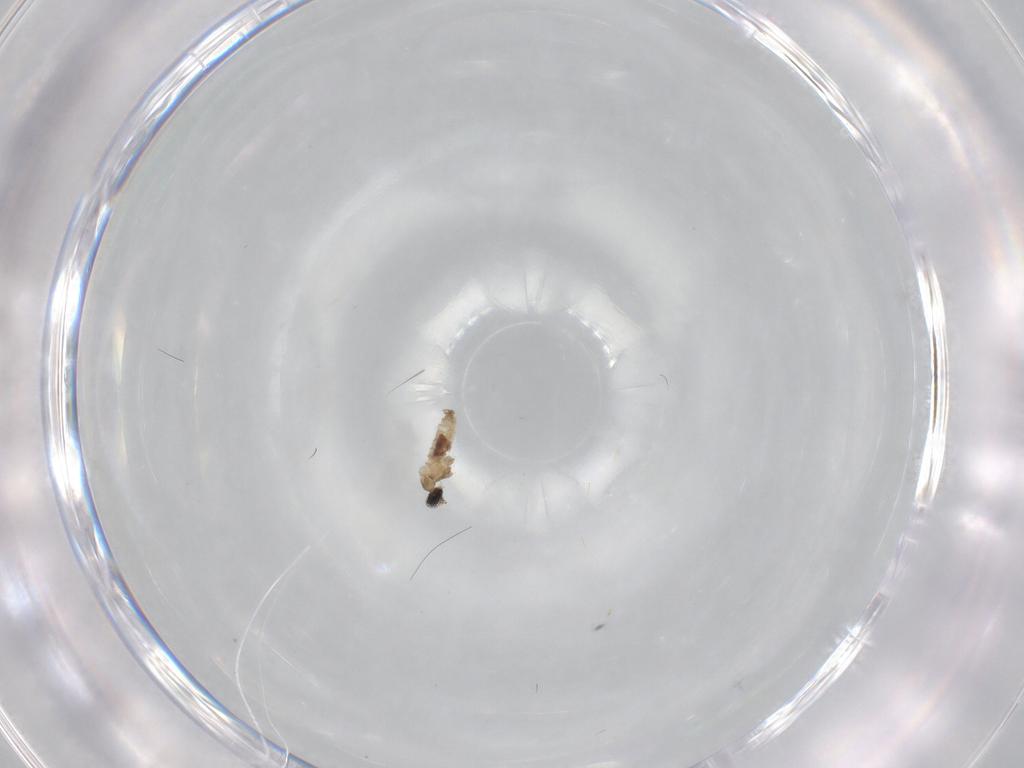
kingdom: Animalia
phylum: Arthropoda
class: Insecta
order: Diptera
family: Cecidomyiidae
